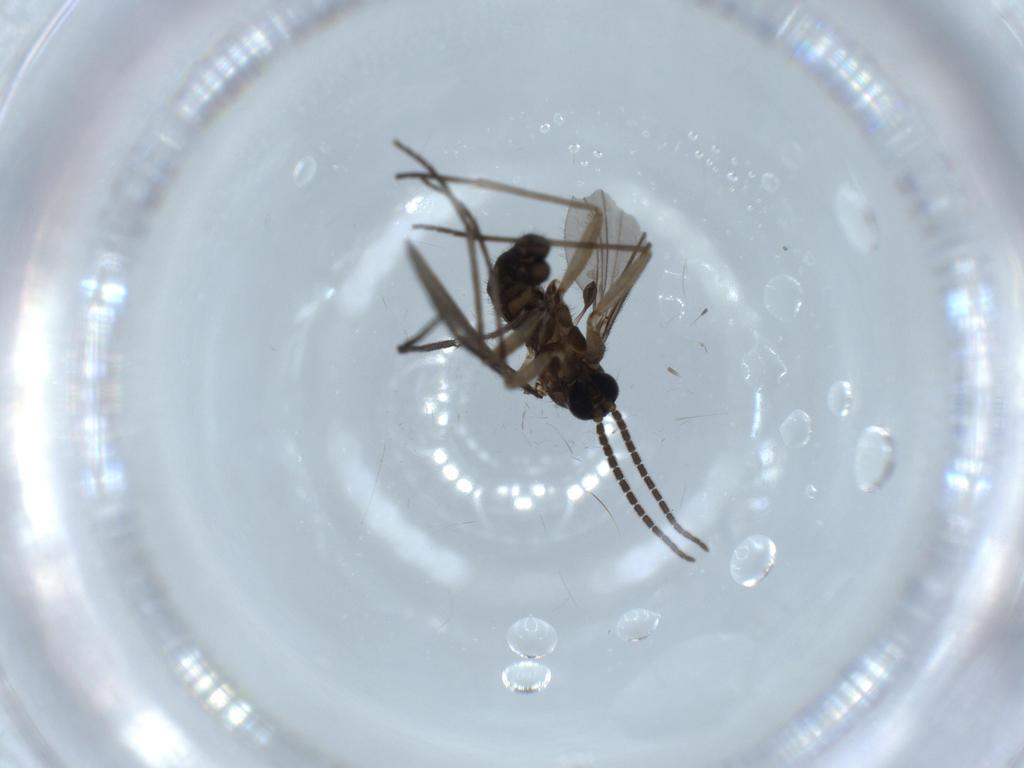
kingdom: Animalia
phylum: Arthropoda
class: Insecta
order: Diptera
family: Sciaridae
